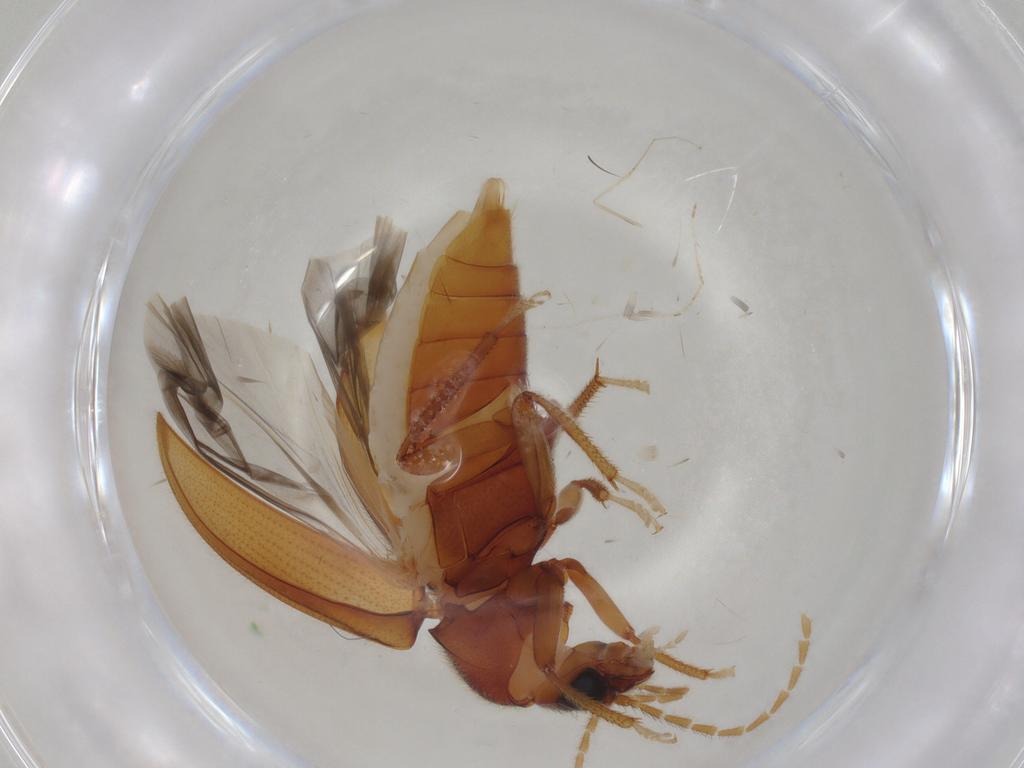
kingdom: Animalia
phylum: Arthropoda
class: Insecta
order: Coleoptera
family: Ptilodactylidae
